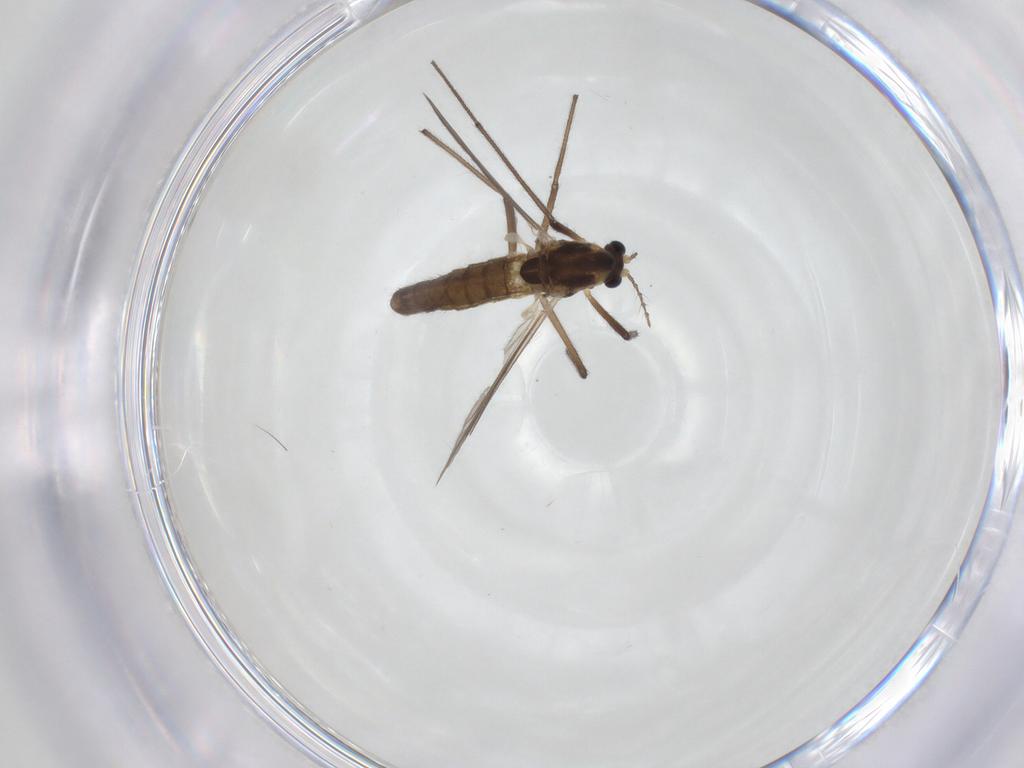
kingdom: Animalia
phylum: Arthropoda
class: Insecta
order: Diptera
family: Chironomidae
